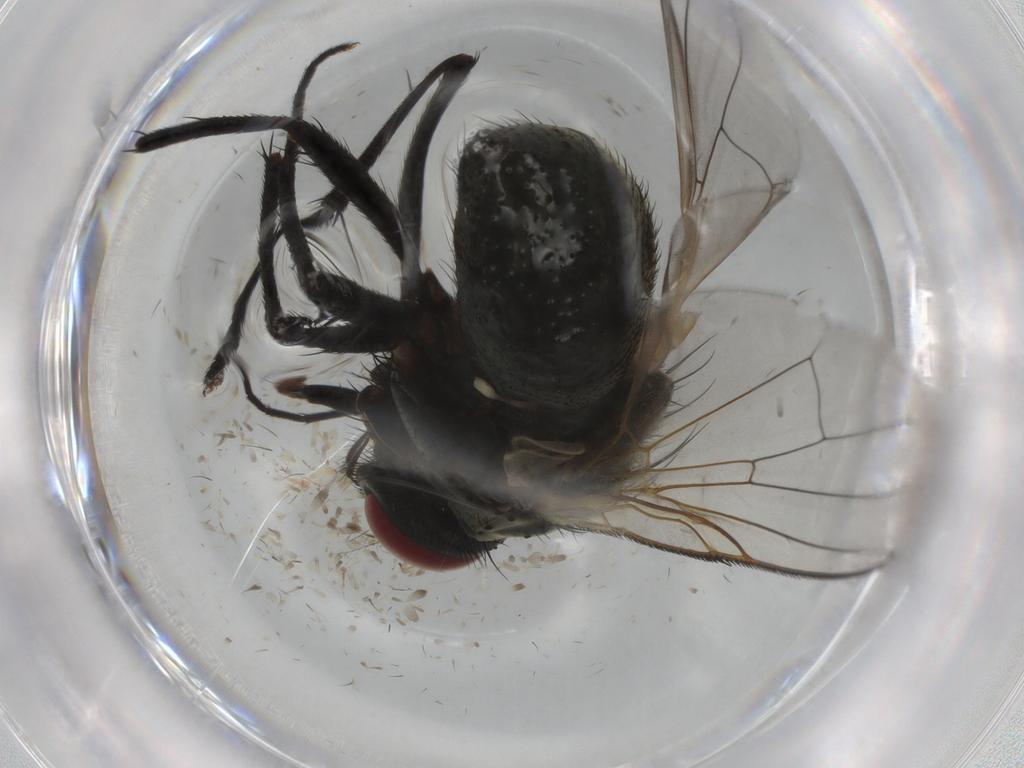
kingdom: Animalia
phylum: Arthropoda
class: Insecta
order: Diptera
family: Muscidae
